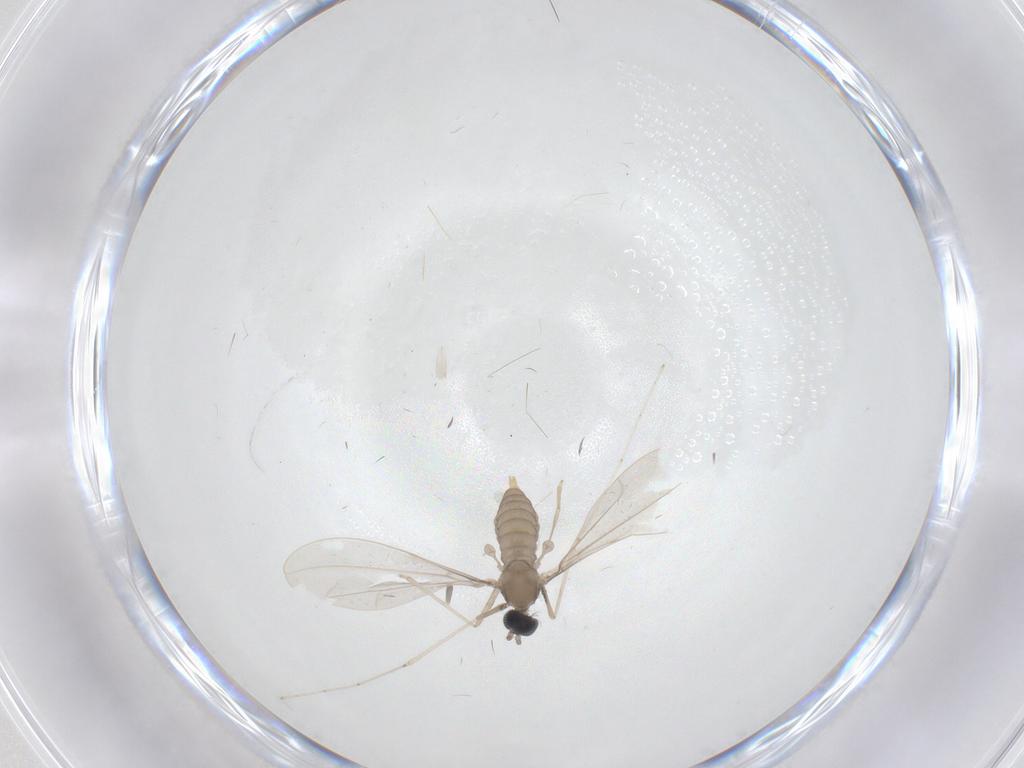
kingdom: Animalia
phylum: Arthropoda
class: Insecta
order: Diptera
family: Cecidomyiidae
